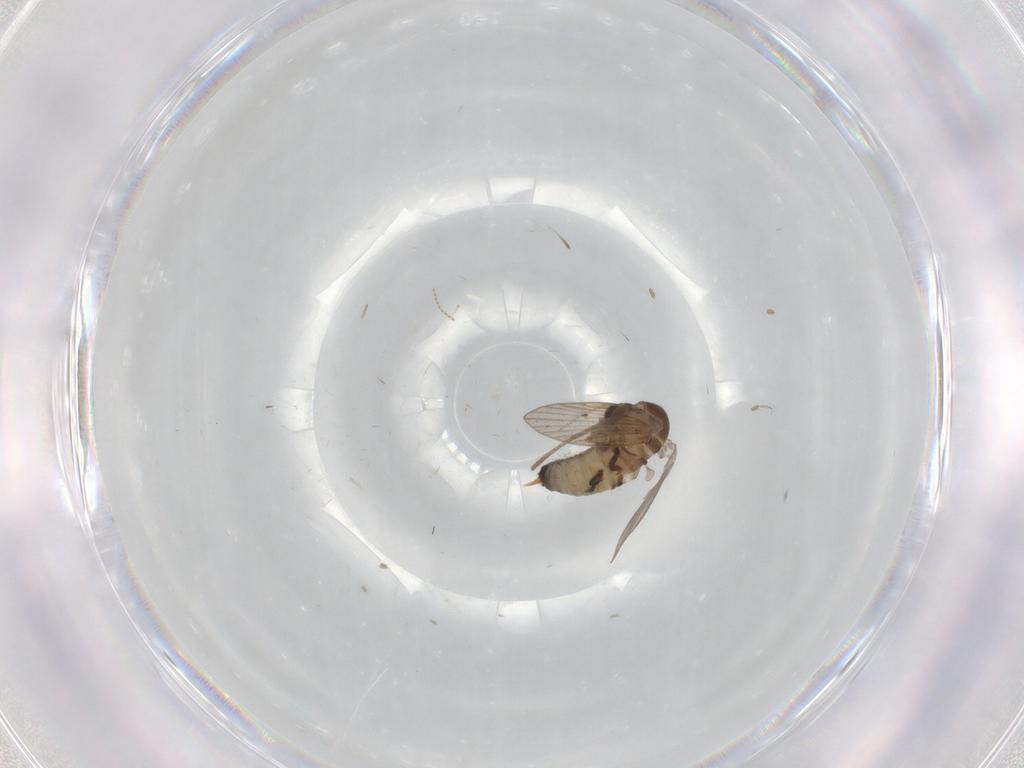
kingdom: Animalia
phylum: Arthropoda
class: Insecta
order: Diptera
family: Psychodidae
